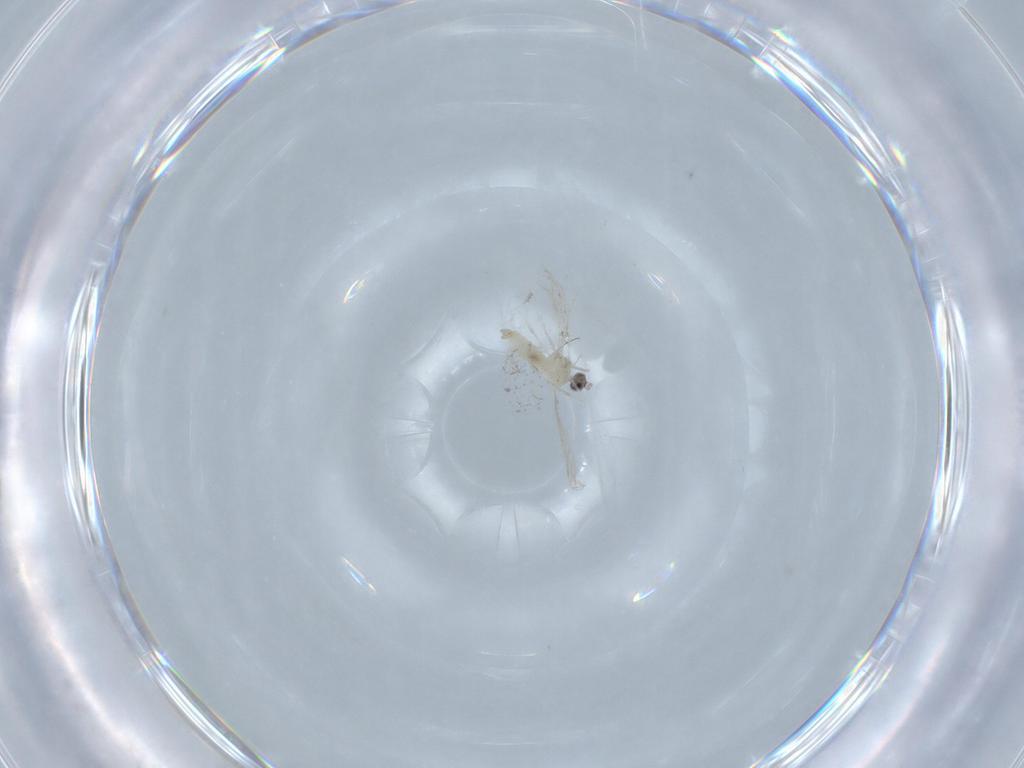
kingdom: Animalia
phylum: Arthropoda
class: Insecta
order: Diptera
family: Cecidomyiidae
